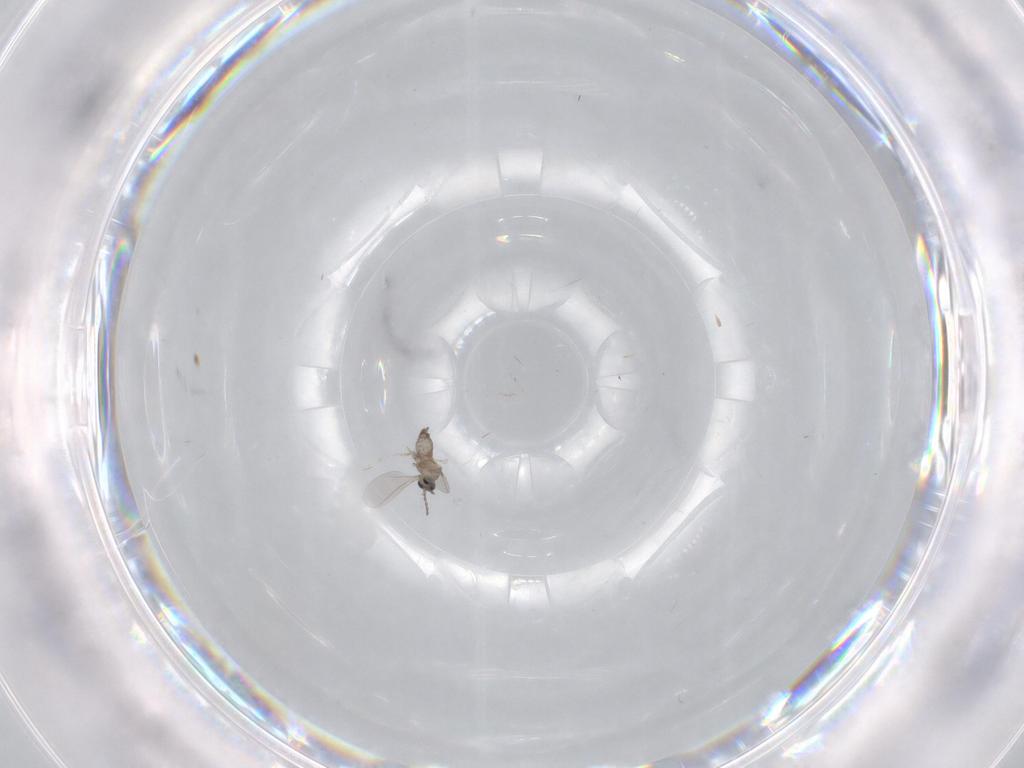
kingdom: Animalia
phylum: Arthropoda
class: Insecta
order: Diptera
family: Cecidomyiidae
